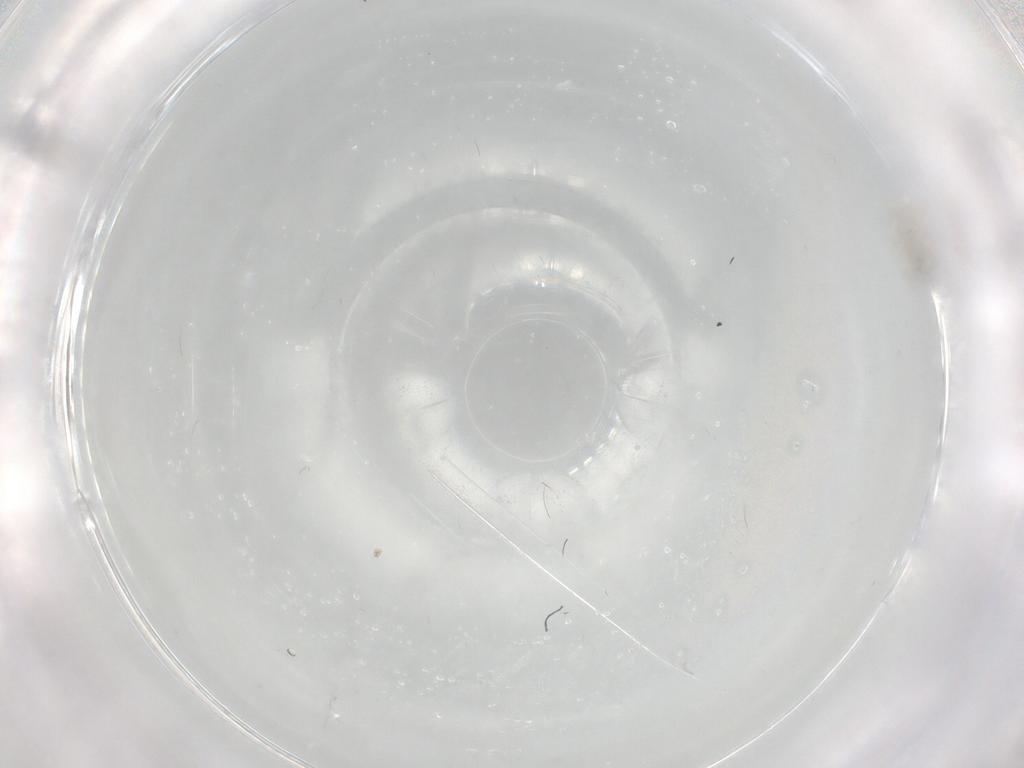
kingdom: Animalia
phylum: Arthropoda
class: Insecta
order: Diptera
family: Cecidomyiidae
